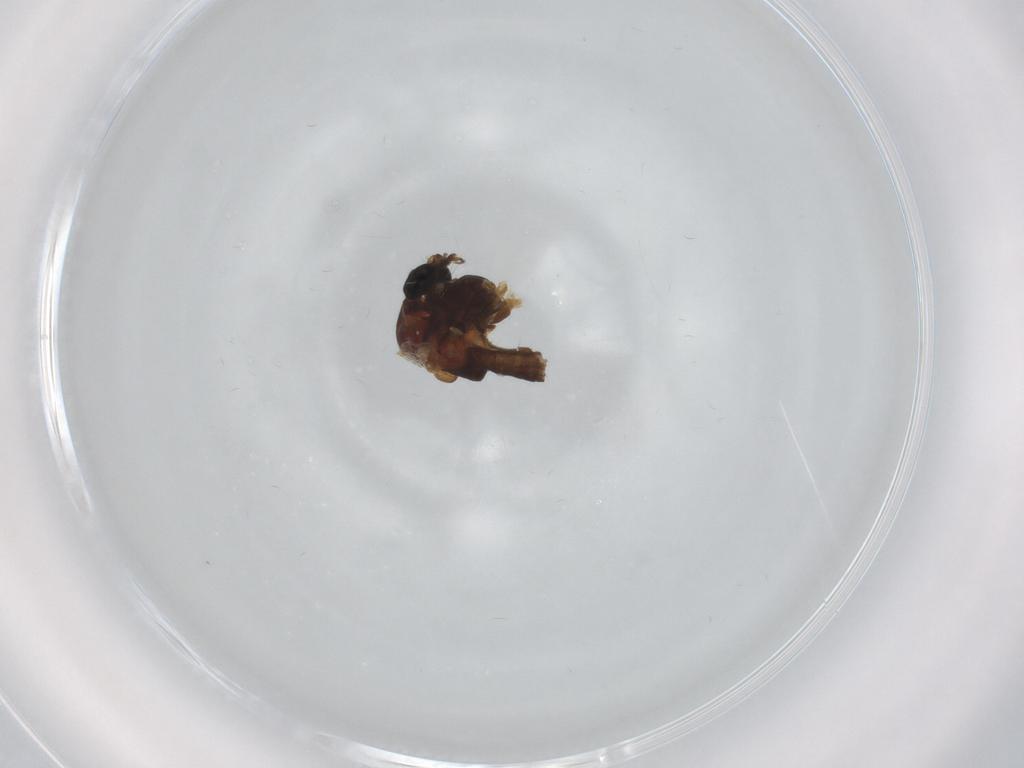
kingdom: Animalia
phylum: Arthropoda
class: Insecta
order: Diptera
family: Chironomidae
